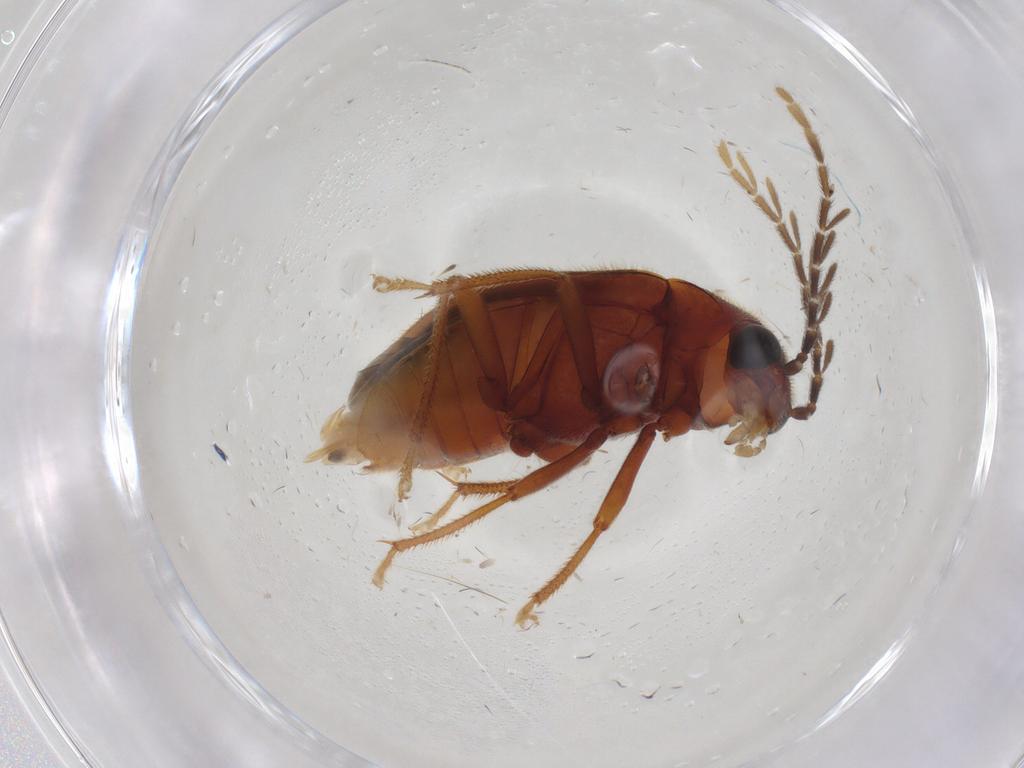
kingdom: Animalia
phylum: Arthropoda
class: Insecta
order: Coleoptera
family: Ptilodactylidae
